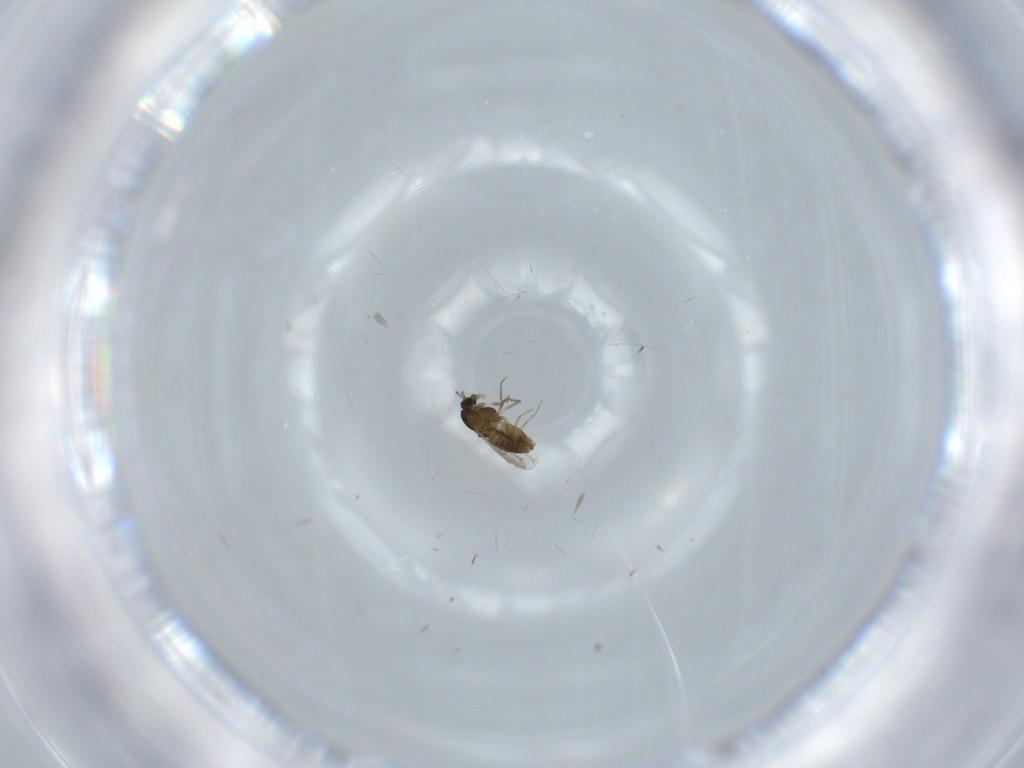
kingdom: Animalia
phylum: Arthropoda
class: Insecta
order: Diptera
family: Chironomidae
